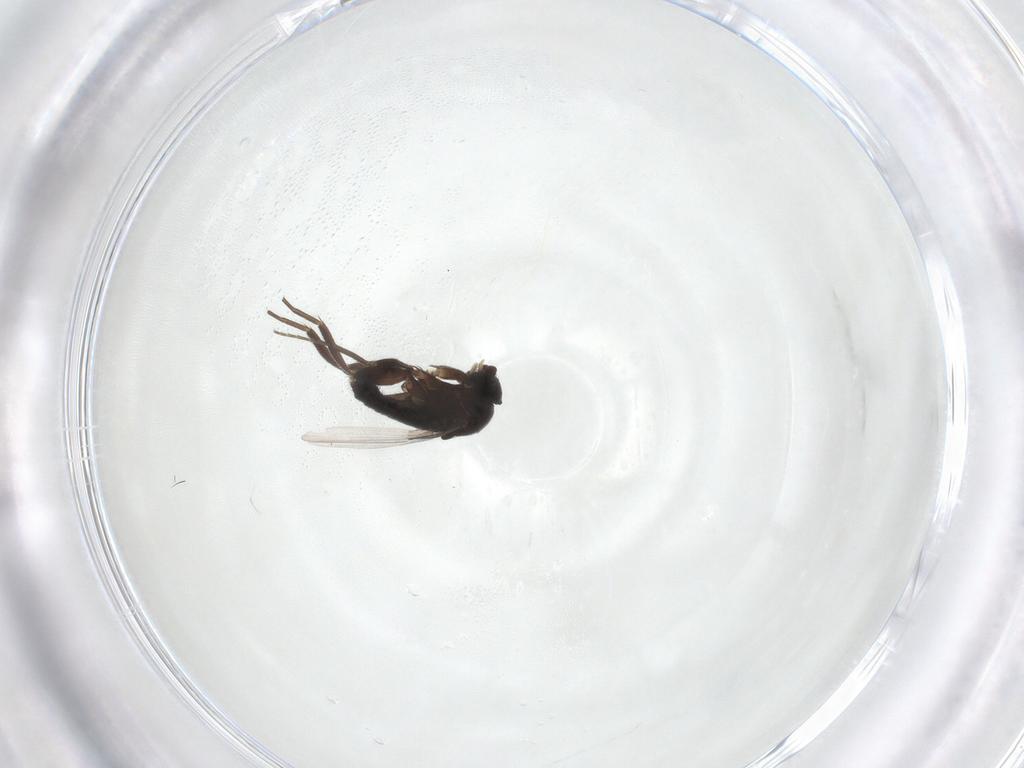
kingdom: Animalia
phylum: Arthropoda
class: Insecta
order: Diptera
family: Phoridae
